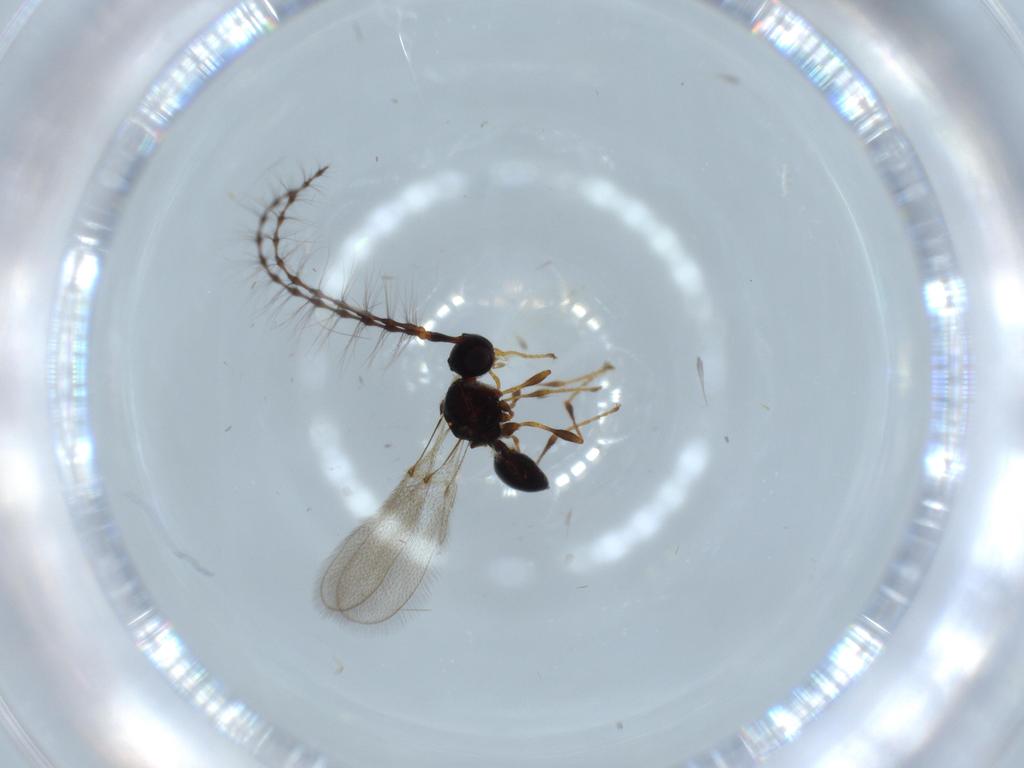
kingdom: Animalia
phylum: Arthropoda
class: Insecta
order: Hymenoptera
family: Diapriidae
